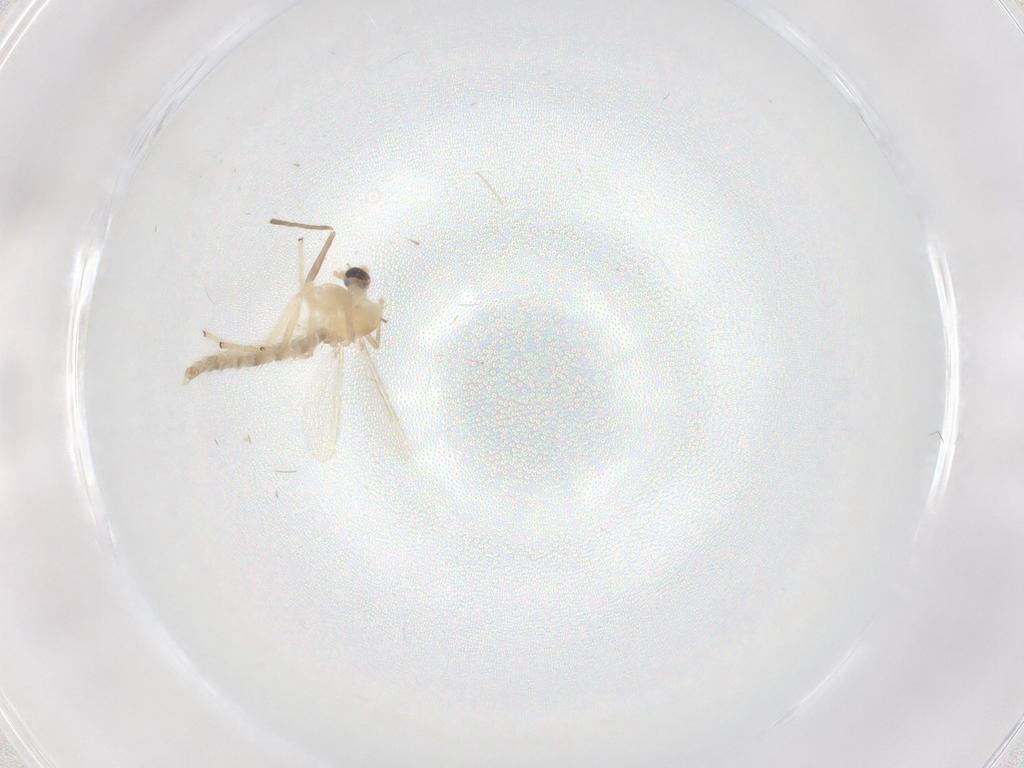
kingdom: Animalia
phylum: Arthropoda
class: Insecta
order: Diptera
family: Chironomidae
